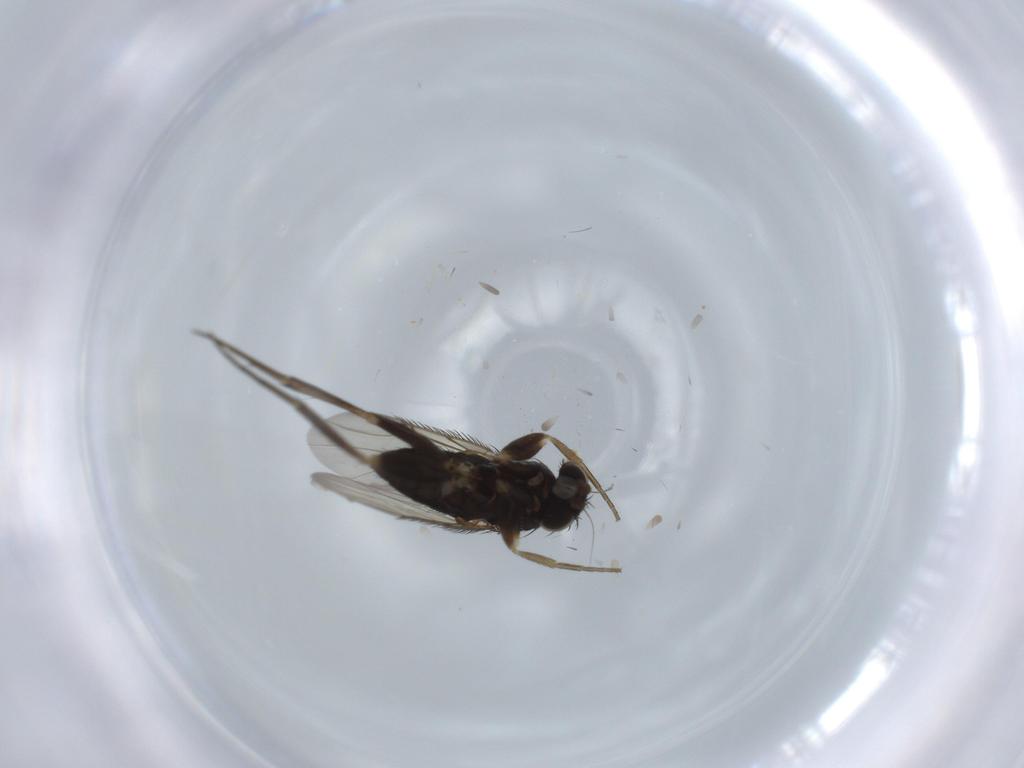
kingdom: Animalia
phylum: Arthropoda
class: Insecta
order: Diptera
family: Phoridae
